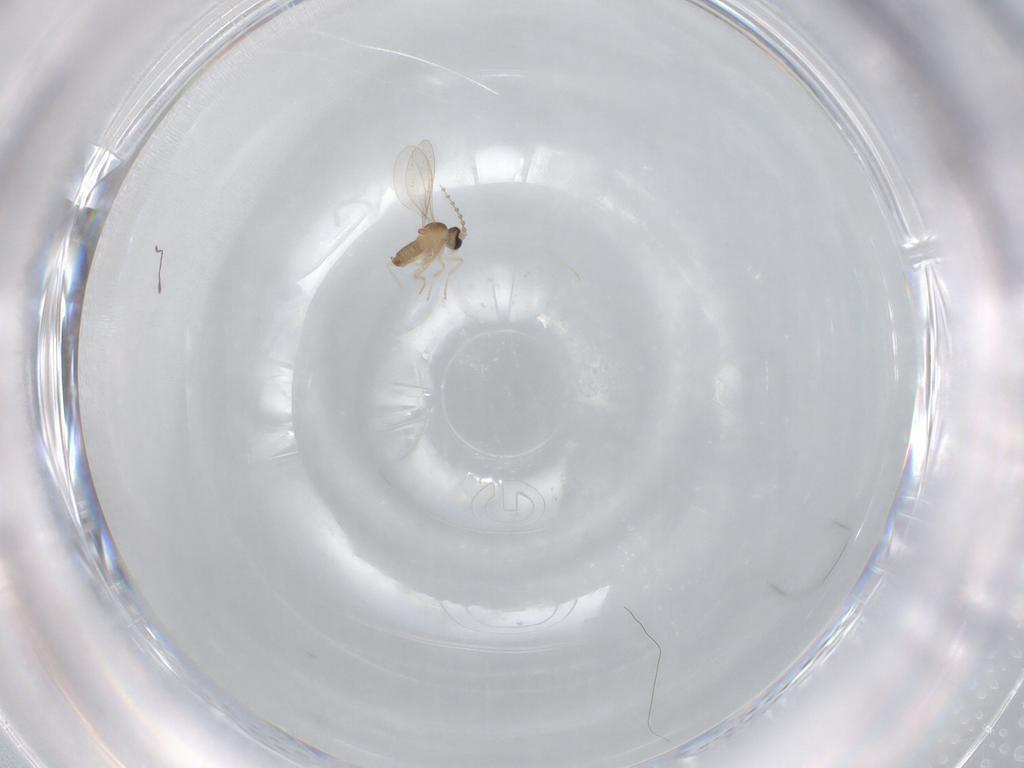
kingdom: Animalia
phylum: Arthropoda
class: Insecta
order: Diptera
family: Cecidomyiidae
